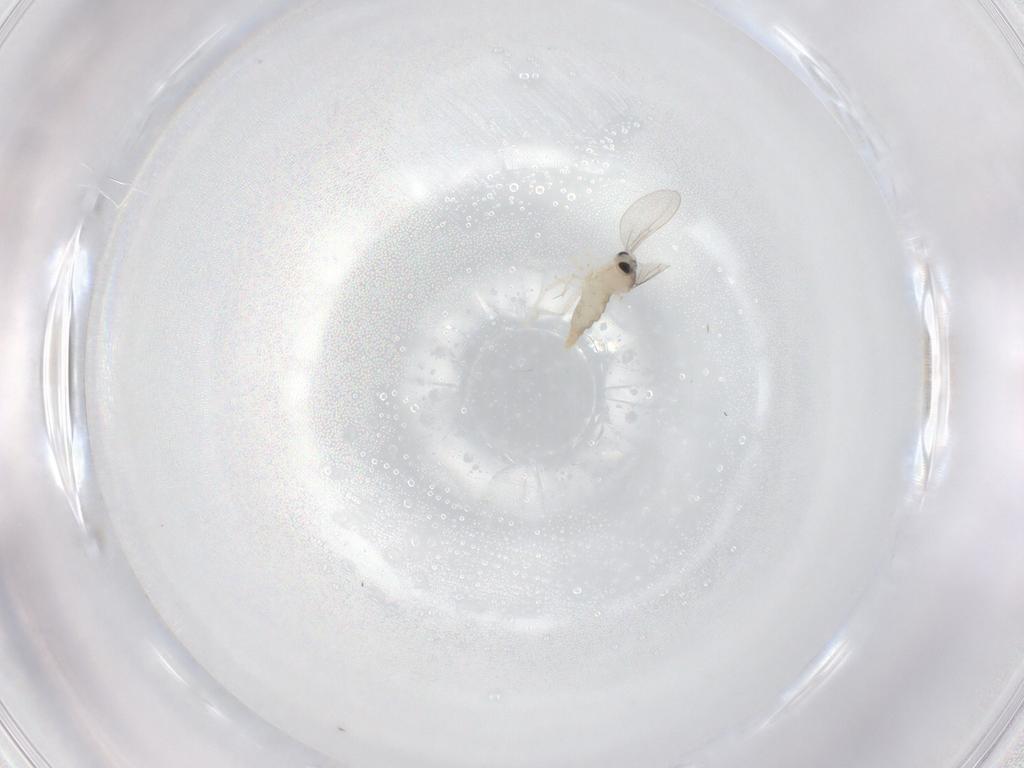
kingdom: Animalia
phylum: Arthropoda
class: Insecta
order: Diptera
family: Cecidomyiidae
